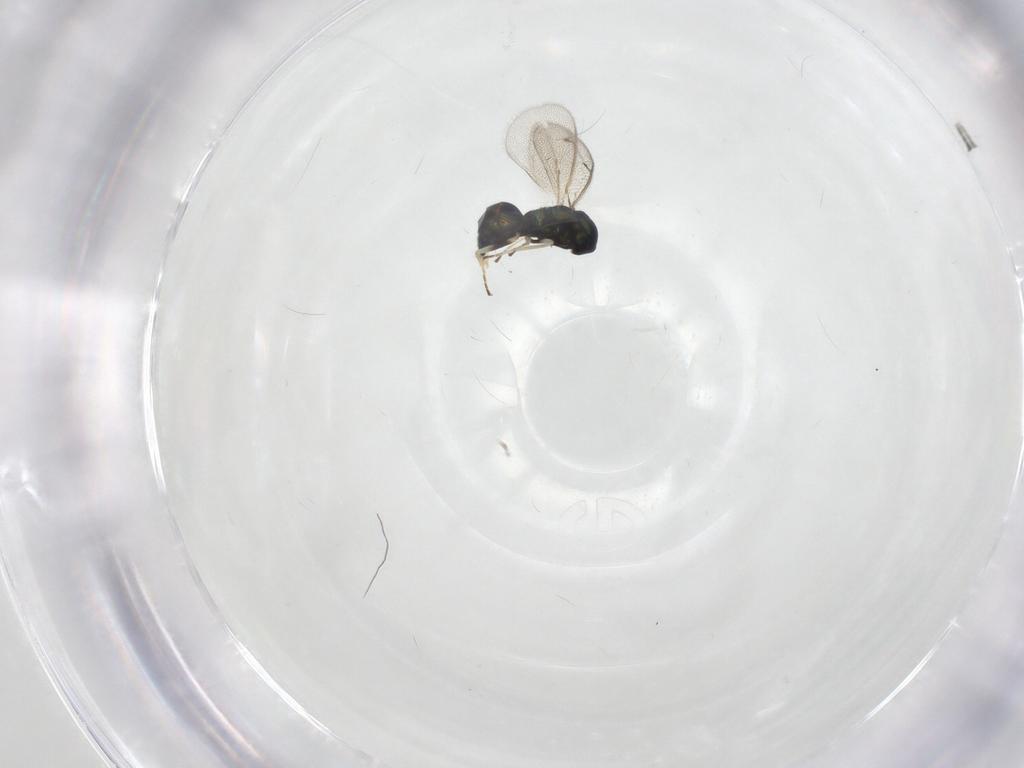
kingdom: Animalia
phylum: Arthropoda
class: Insecta
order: Hymenoptera
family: Eulophidae
